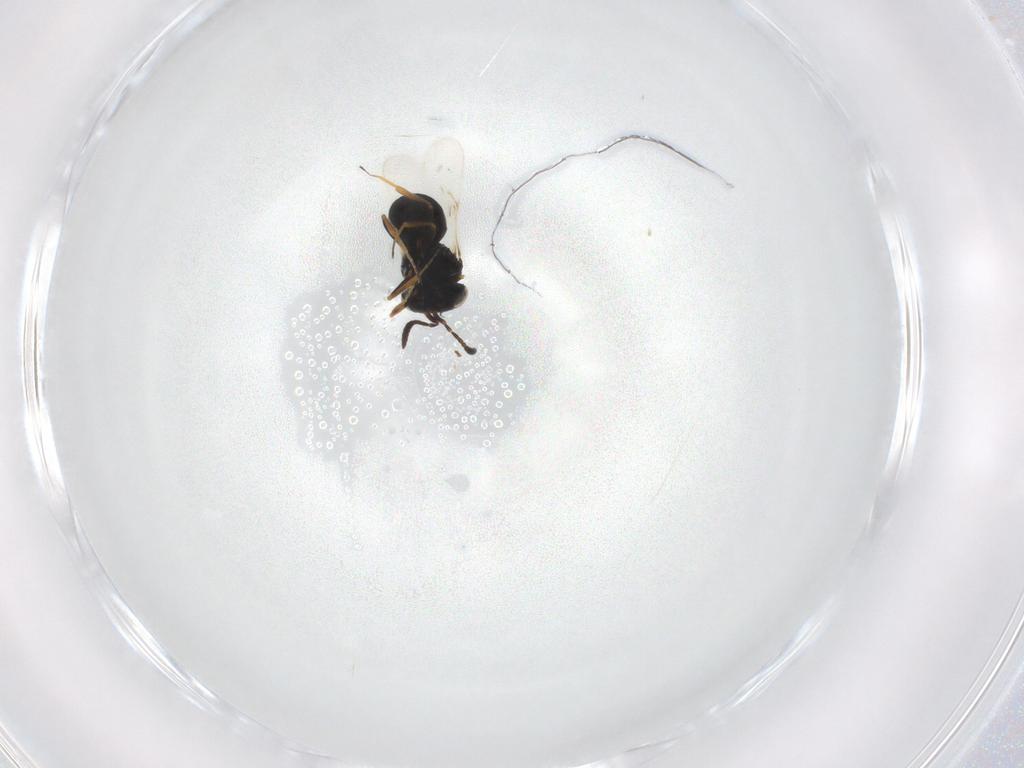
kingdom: Animalia
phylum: Arthropoda
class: Insecta
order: Hymenoptera
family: Scelionidae
